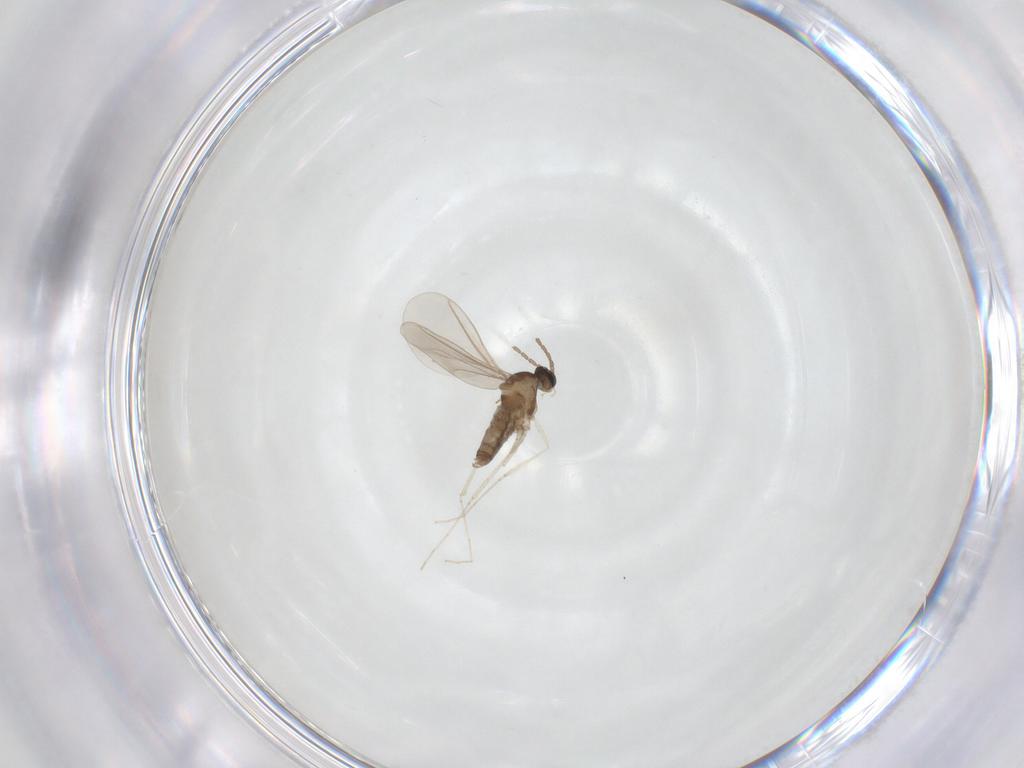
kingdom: Animalia
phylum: Arthropoda
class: Insecta
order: Diptera
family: Cecidomyiidae
